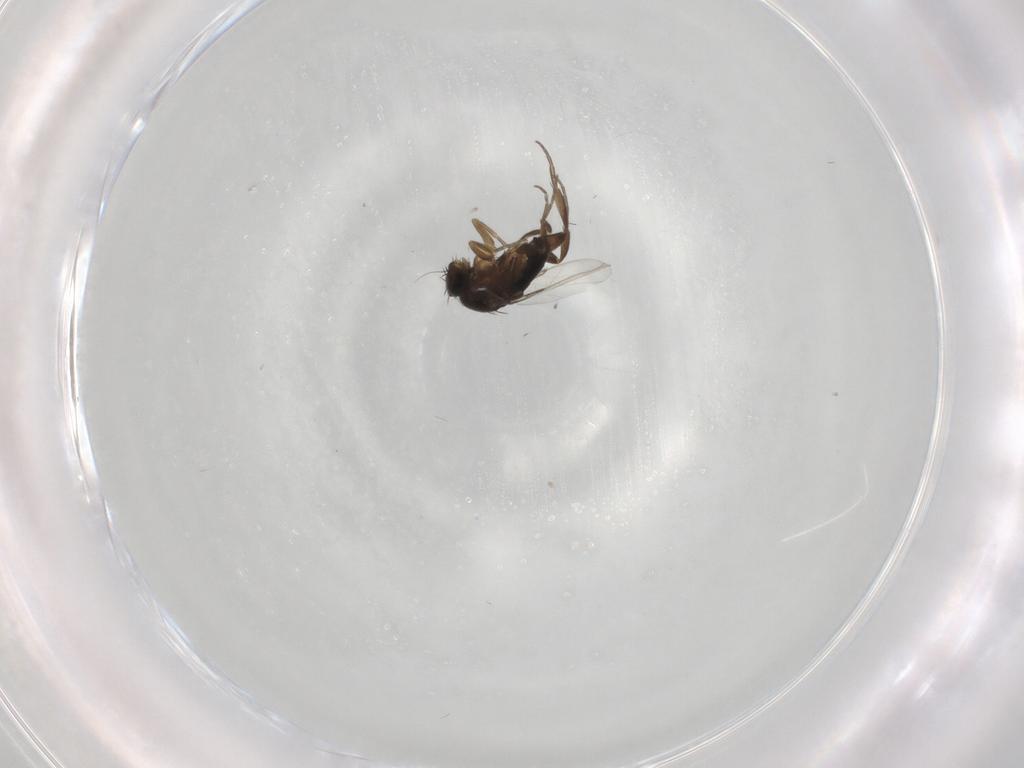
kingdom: Animalia
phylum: Arthropoda
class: Insecta
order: Diptera
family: Phoridae
